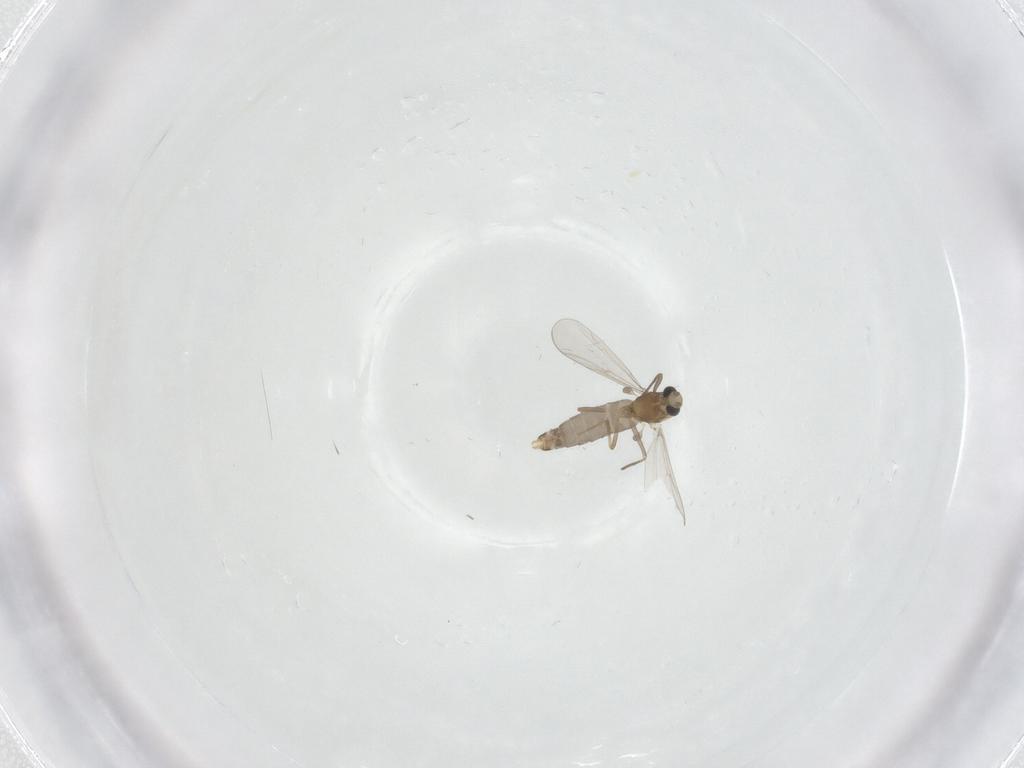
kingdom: Animalia
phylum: Arthropoda
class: Insecta
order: Diptera
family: Chironomidae
